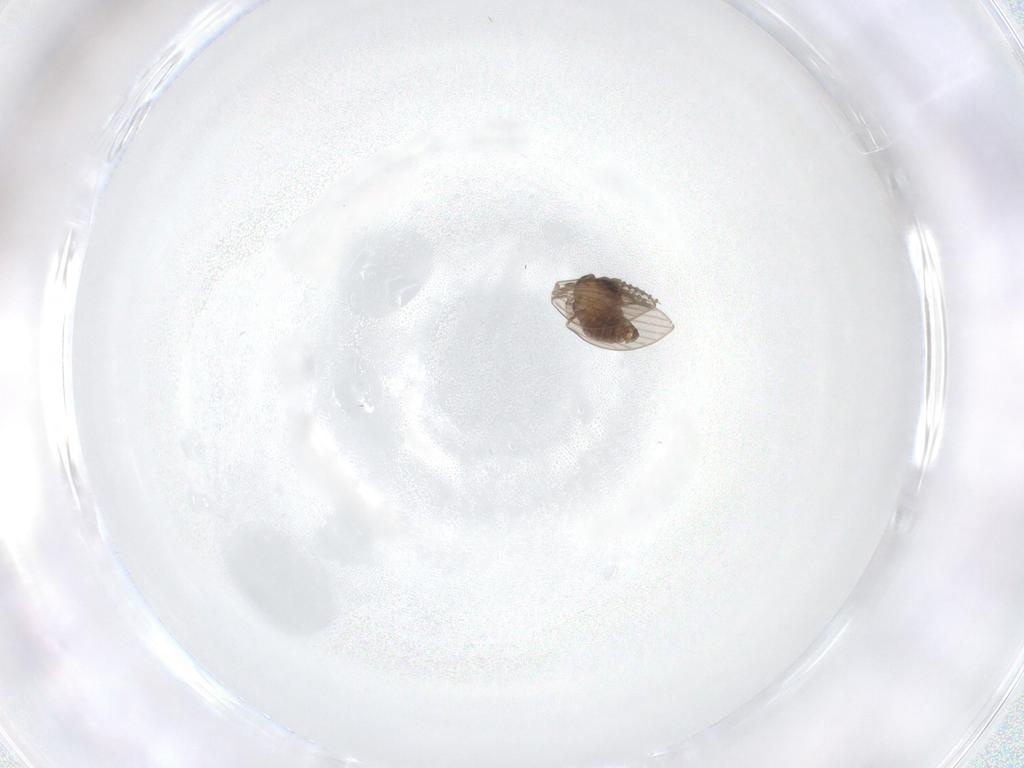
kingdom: Animalia
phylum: Arthropoda
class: Insecta
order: Diptera
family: Psychodidae
